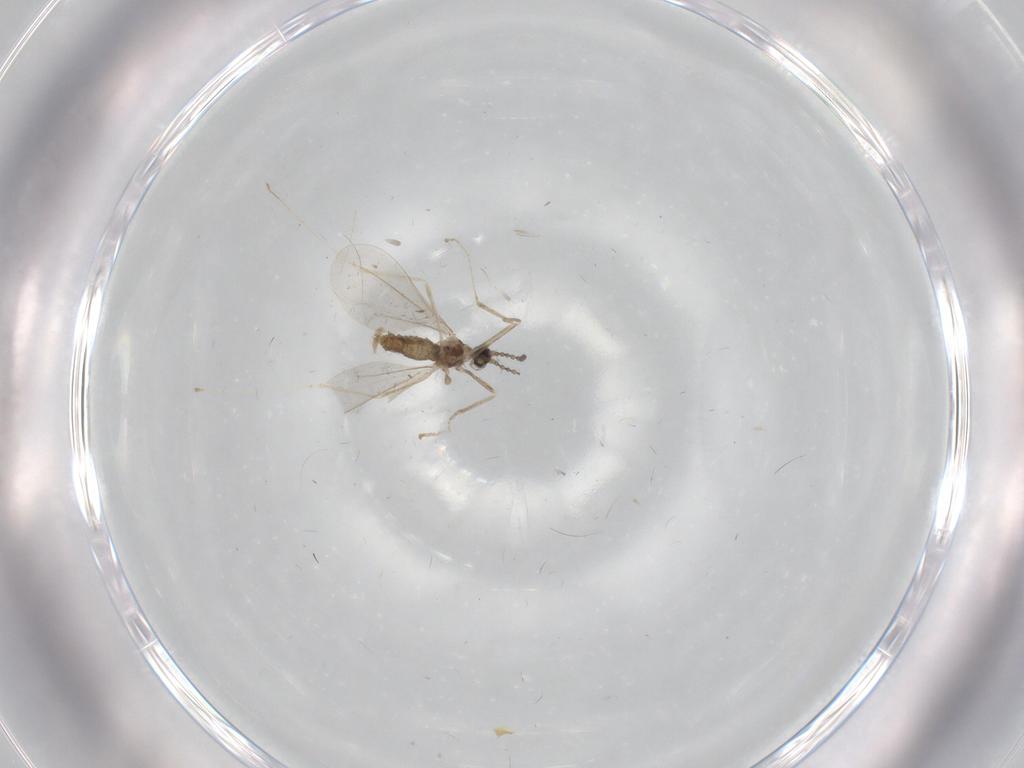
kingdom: Animalia
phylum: Arthropoda
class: Insecta
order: Diptera
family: Cecidomyiidae
